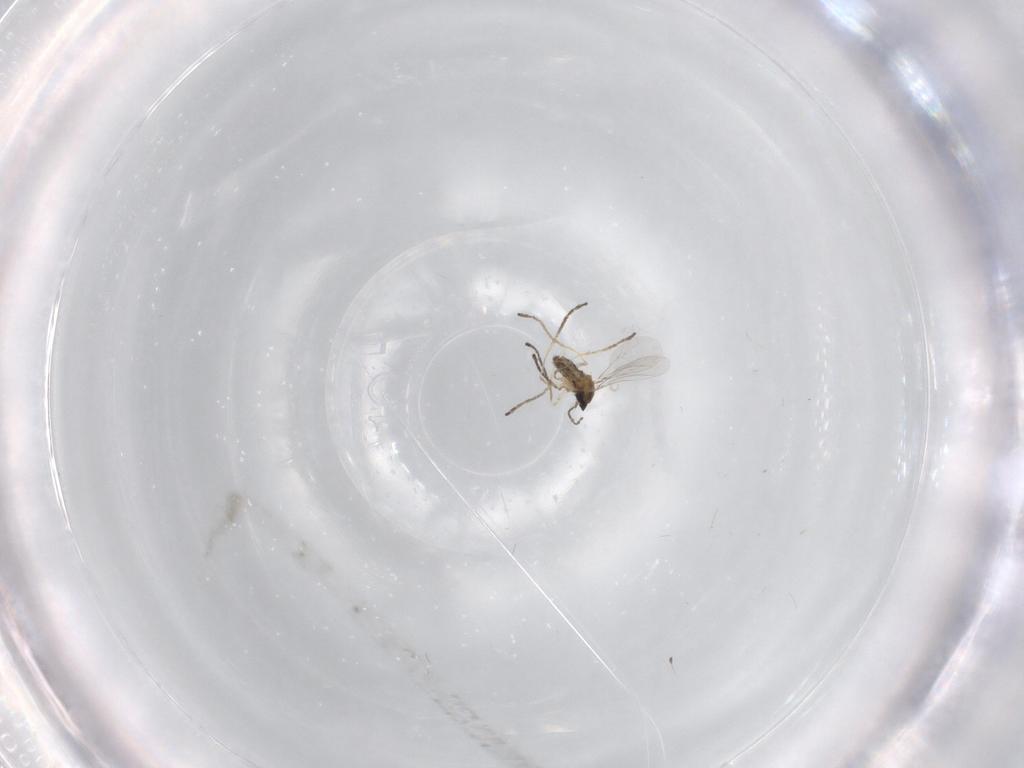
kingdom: Animalia
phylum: Arthropoda
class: Insecta
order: Diptera
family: Psychodidae
